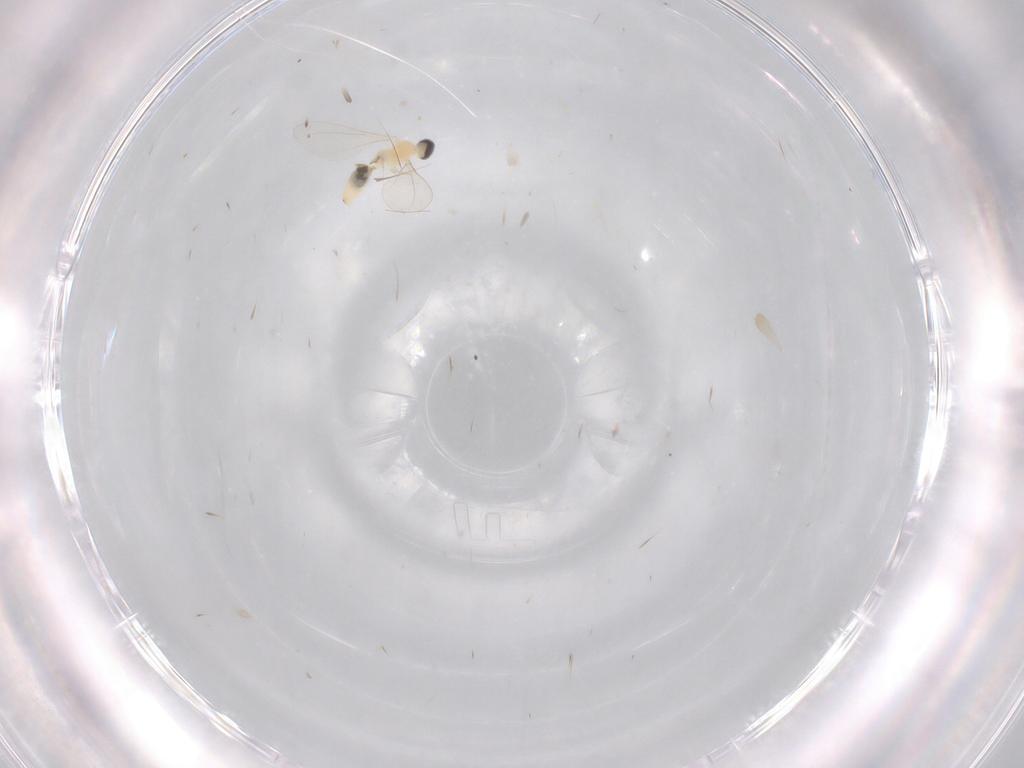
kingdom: Animalia
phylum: Arthropoda
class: Insecta
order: Diptera
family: Cecidomyiidae
